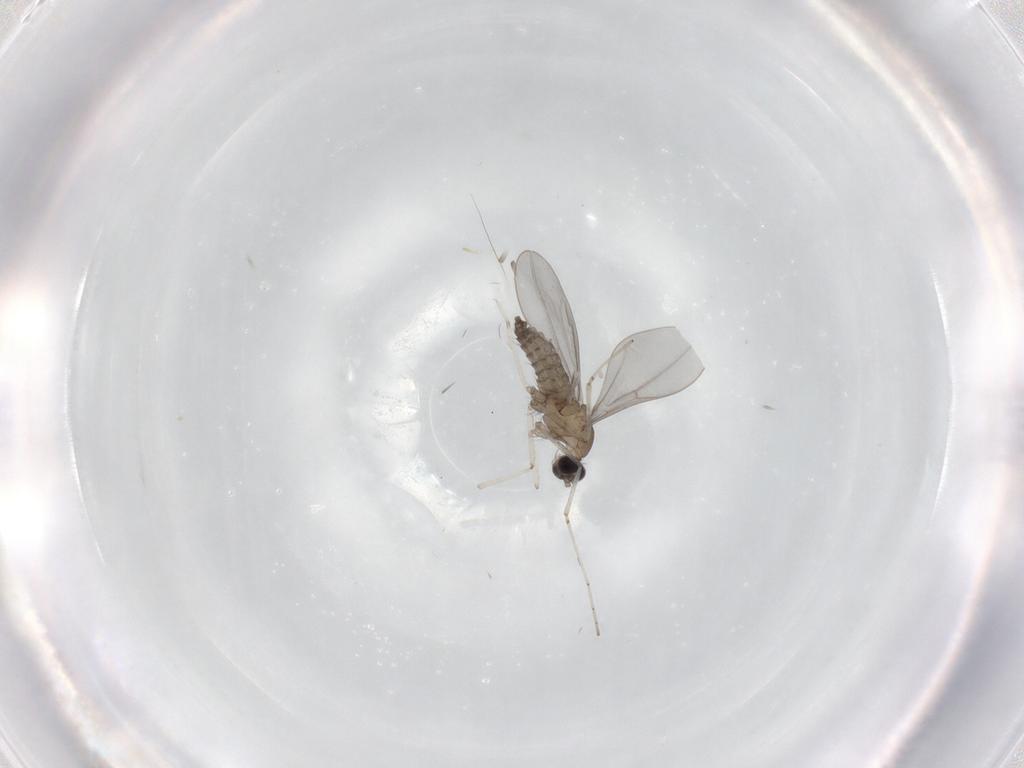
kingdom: Animalia
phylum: Arthropoda
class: Insecta
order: Diptera
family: Cecidomyiidae
